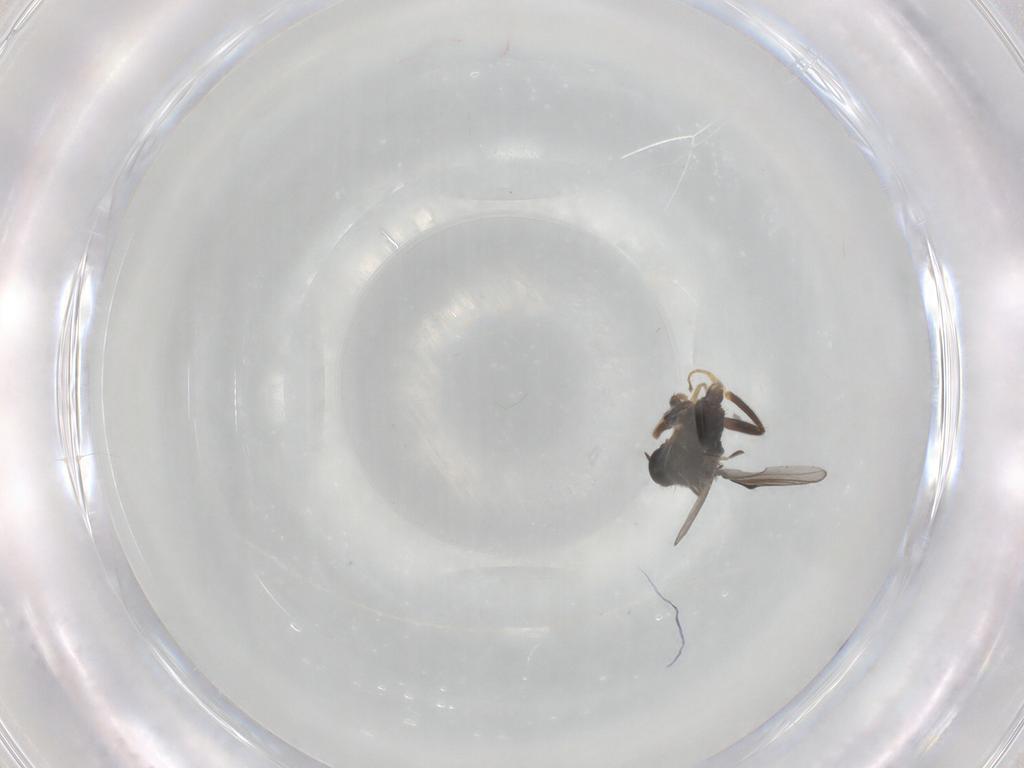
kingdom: Animalia
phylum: Arthropoda
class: Insecta
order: Diptera
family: Hybotidae
